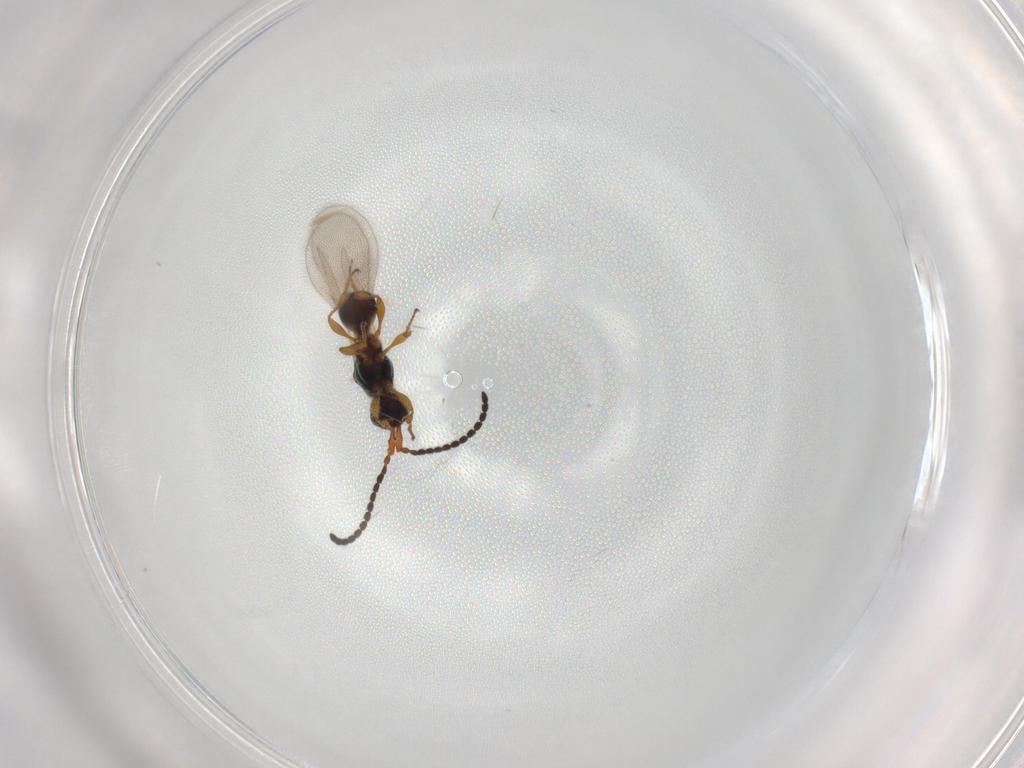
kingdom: Animalia
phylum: Arthropoda
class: Insecta
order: Hymenoptera
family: Diapriidae
